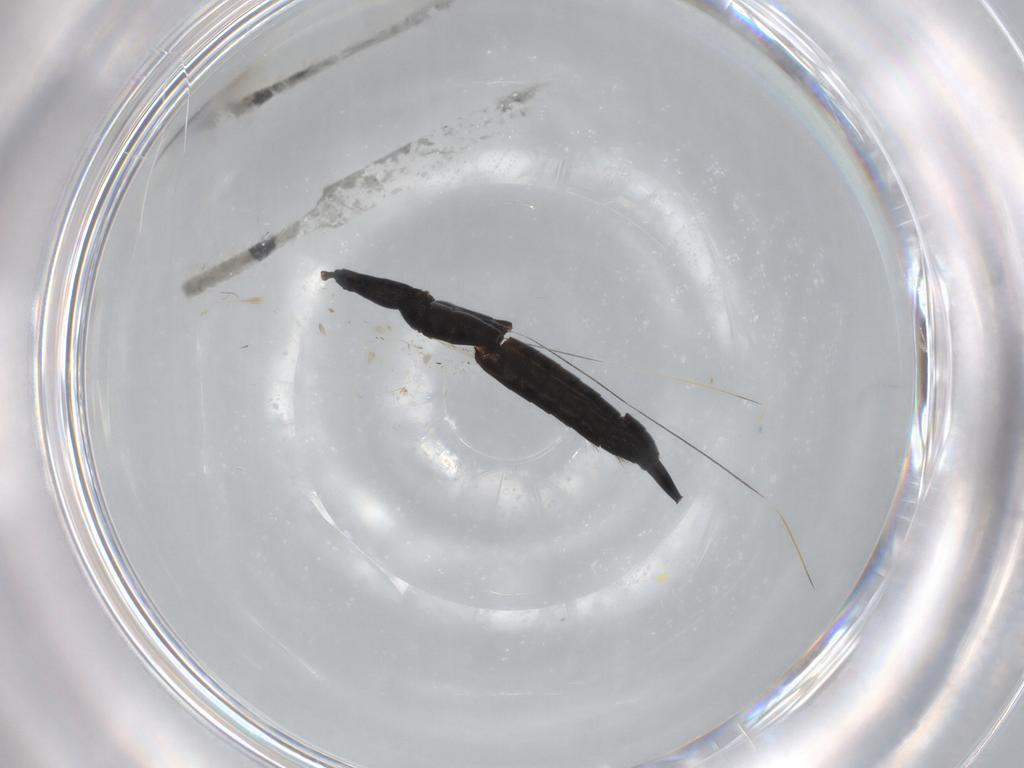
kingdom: Animalia
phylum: Arthropoda
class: Insecta
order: Thysanoptera
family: Phlaeothripidae
